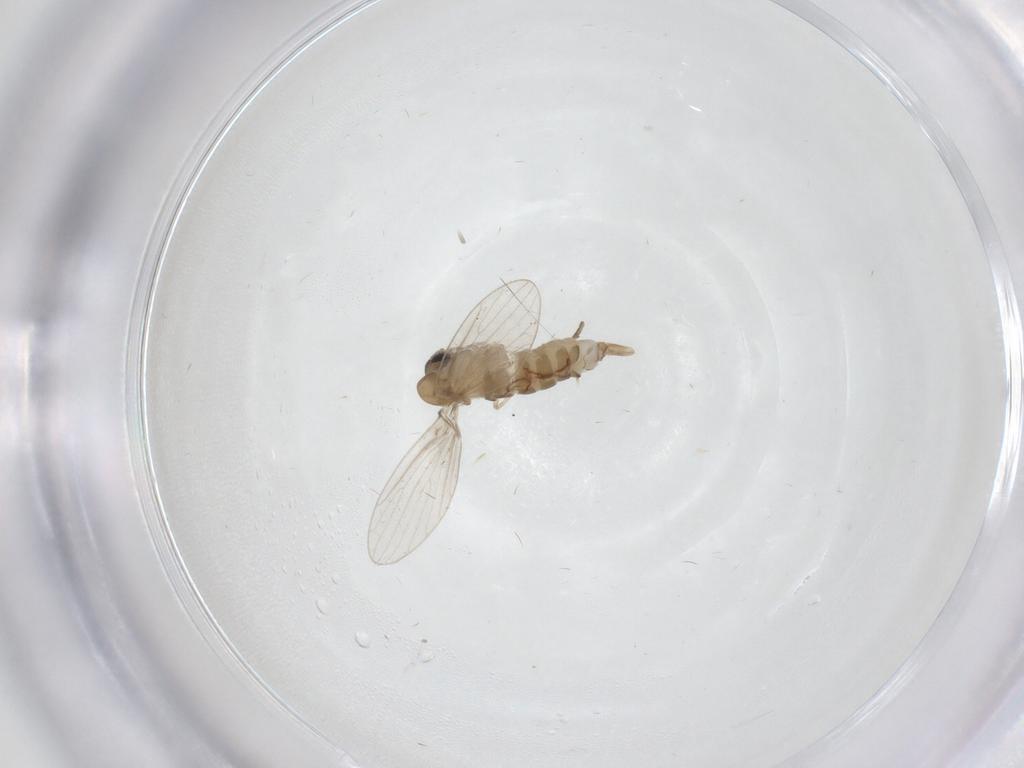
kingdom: Animalia
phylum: Arthropoda
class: Insecta
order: Diptera
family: Psychodidae
